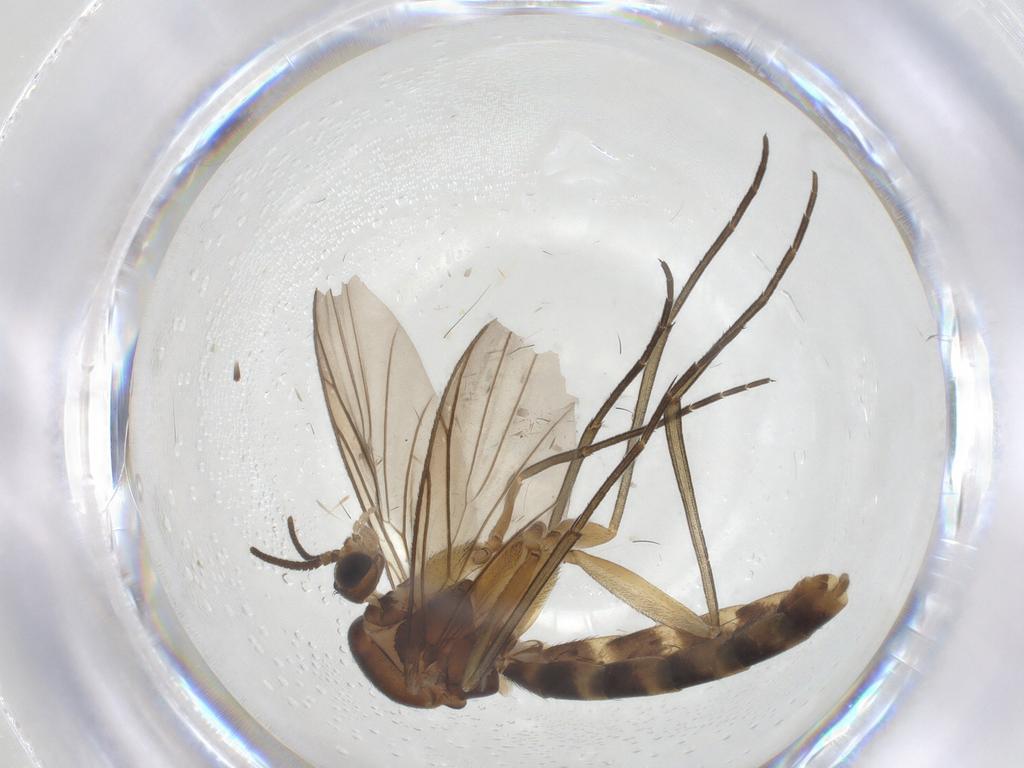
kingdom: Animalia
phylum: Arthropoda
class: Insecta
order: Diptera
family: Keroplatidae
